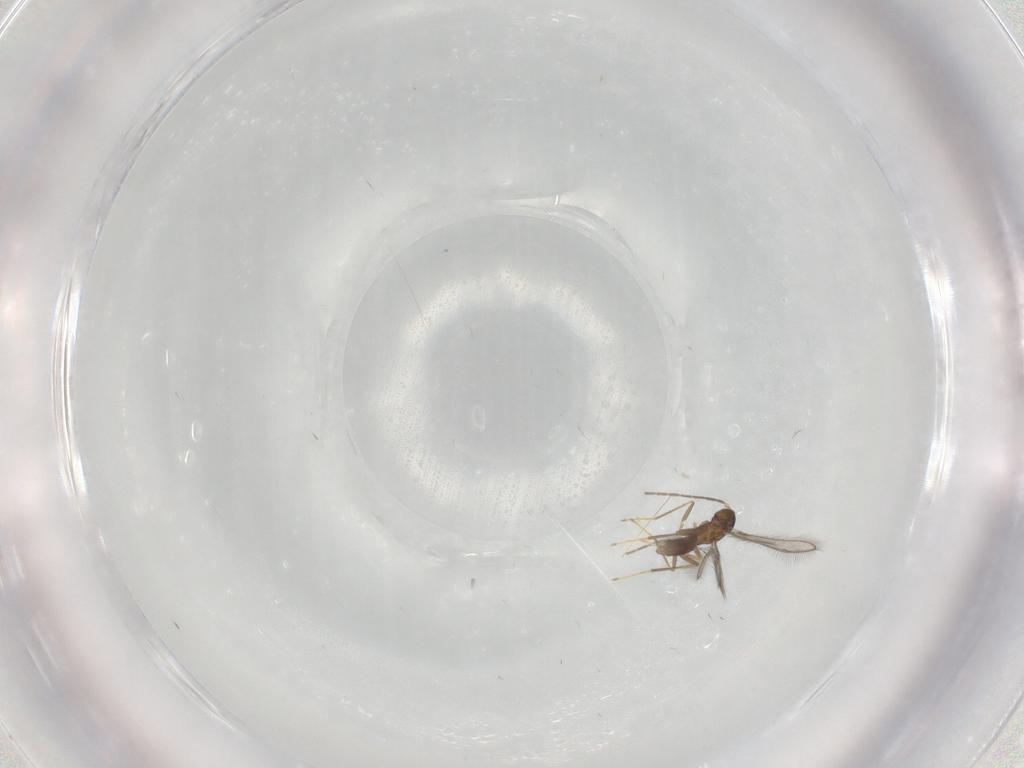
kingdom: Animalia
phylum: Arthropoda
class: Insecta
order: Hymenoptera
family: Mymaridae
